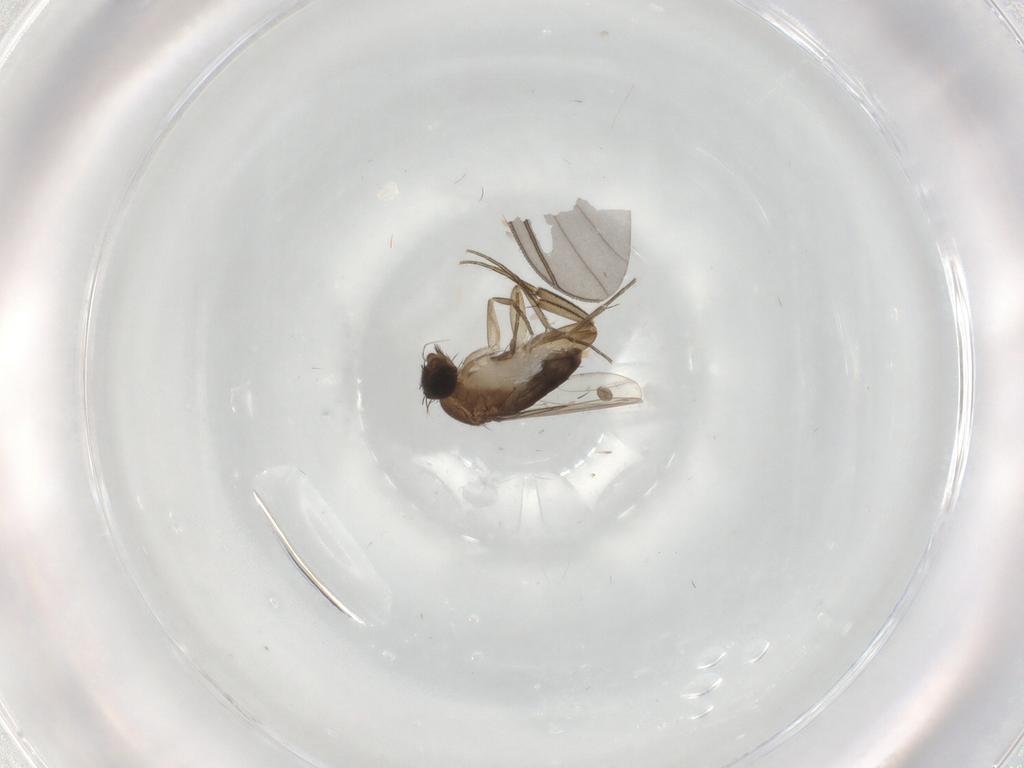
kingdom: Animalia
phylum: Arthropoda
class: Insecta
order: Diptera
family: Phoridae
